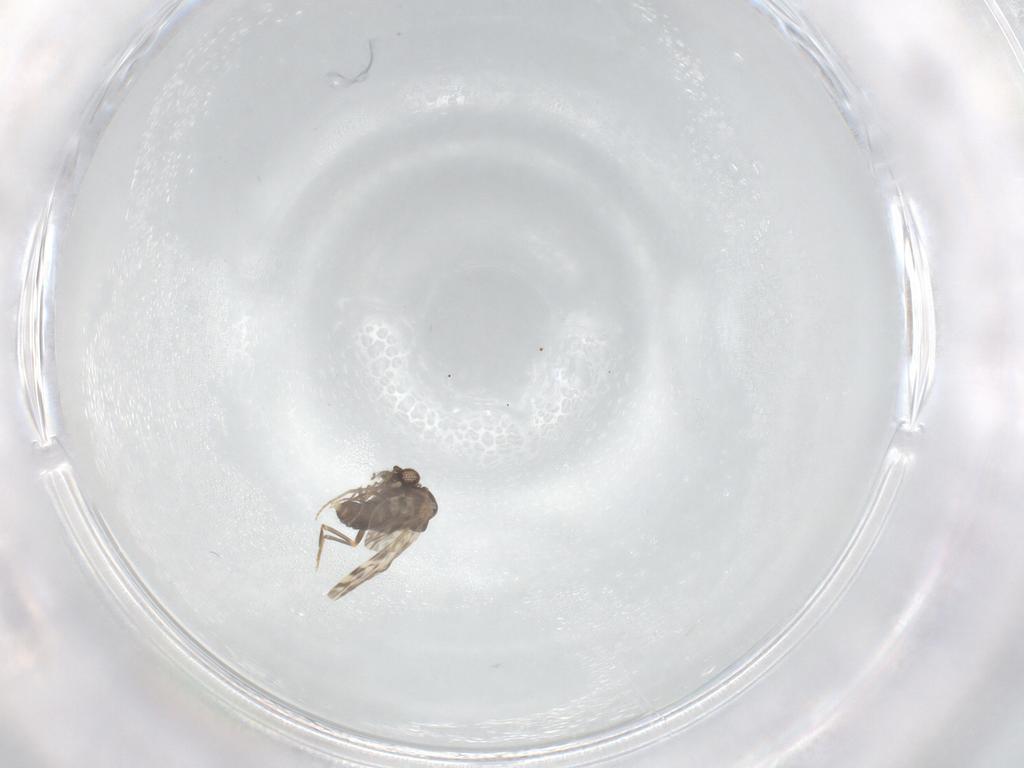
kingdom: Animalia
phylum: Arthropoda
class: Insecta
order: Diptera
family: Ceratopogonidae
